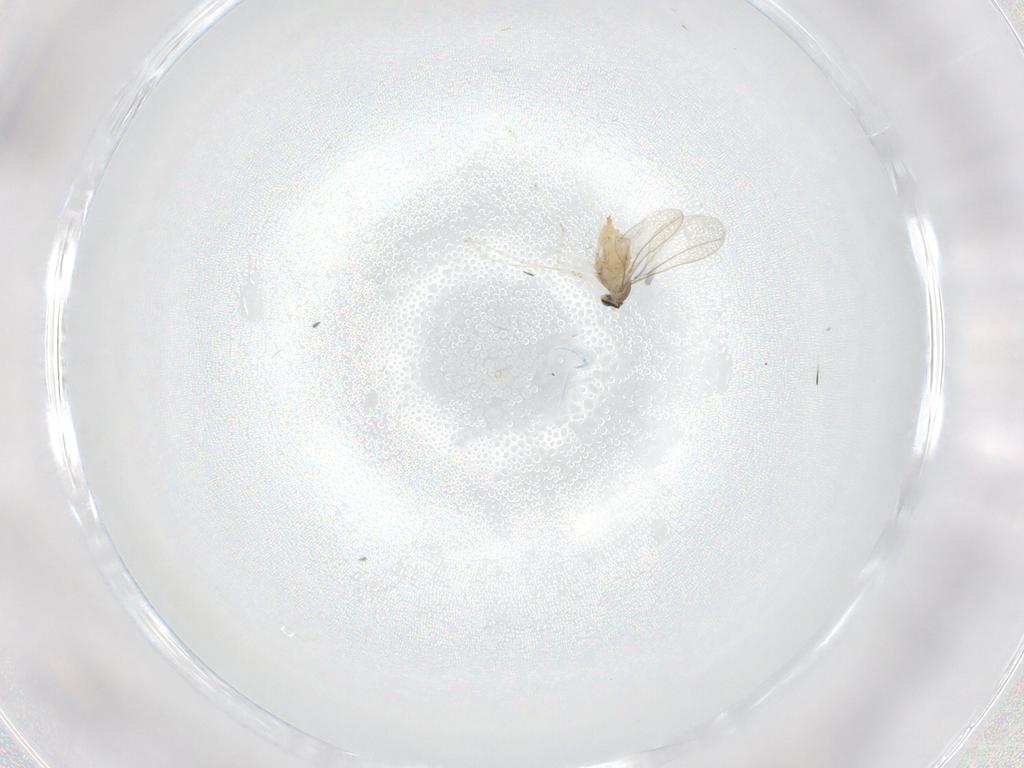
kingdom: Animalia
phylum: Arthropoda
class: Insecta
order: Diptera
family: Phoridae
